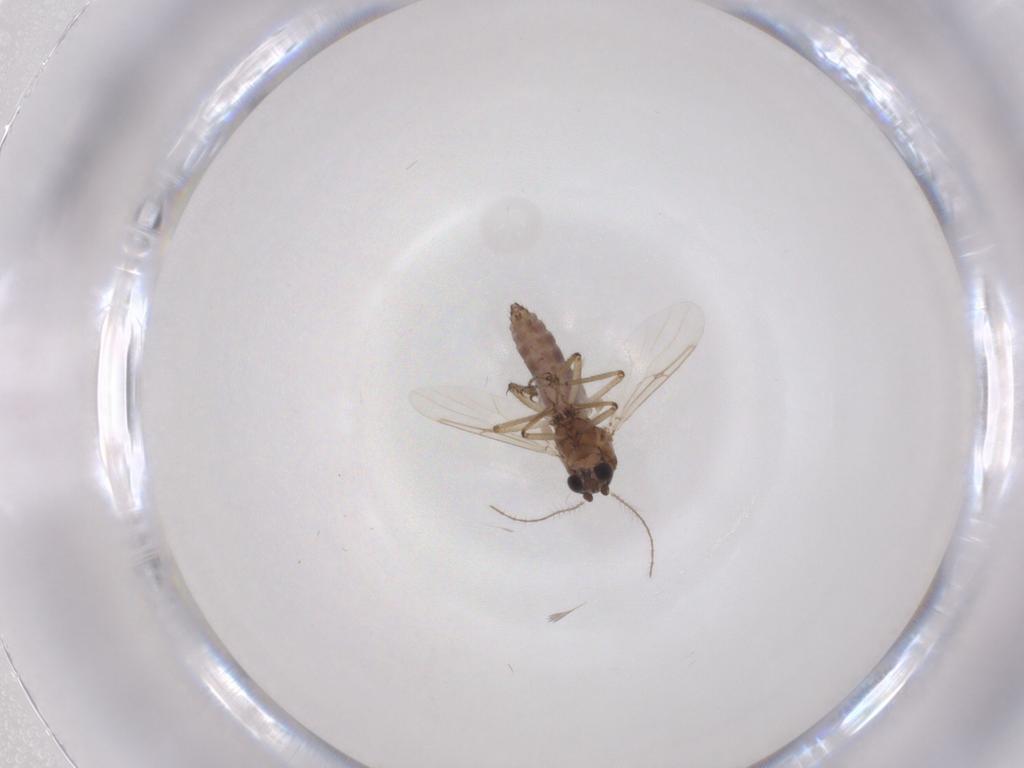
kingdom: Animalia
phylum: Arthropoda
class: Insecta
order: Diptera
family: Ceratopogonidae
